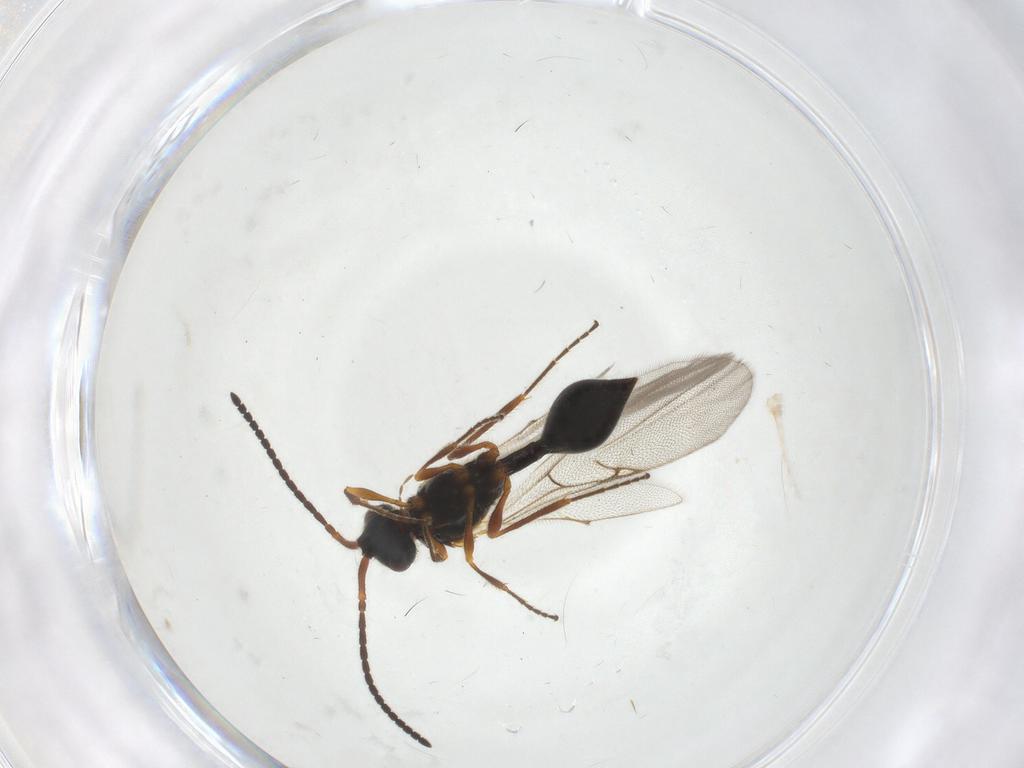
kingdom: Animalia
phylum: Arthropoda
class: Insecta
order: Hymenoptera
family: Diapriidae
